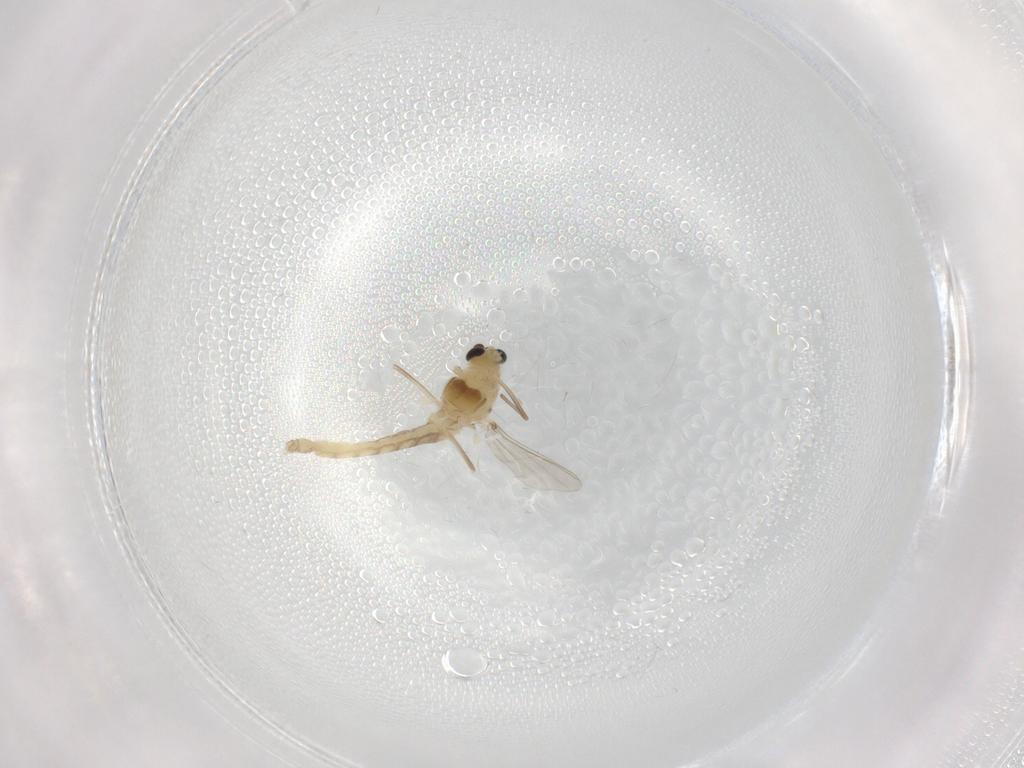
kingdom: Animalia
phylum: Arthropoda
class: Insecta
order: Diptera
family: Chironomidae
